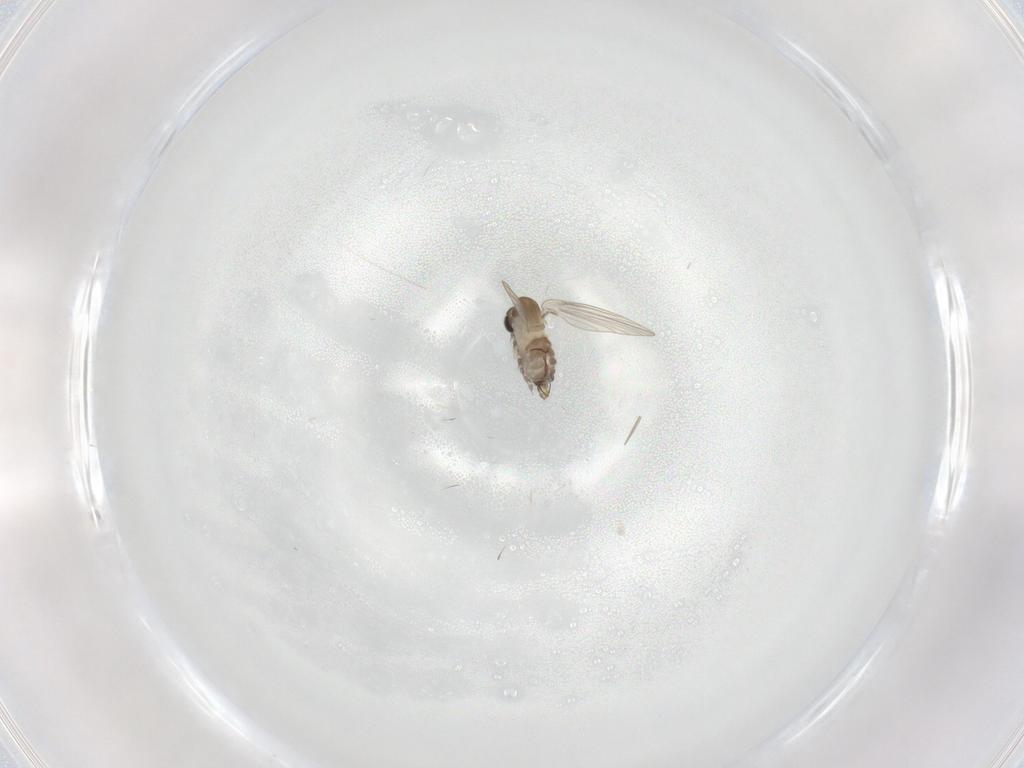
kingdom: Animalia
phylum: Arthropoda
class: Insecta
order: Diptera
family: Psychodidae
